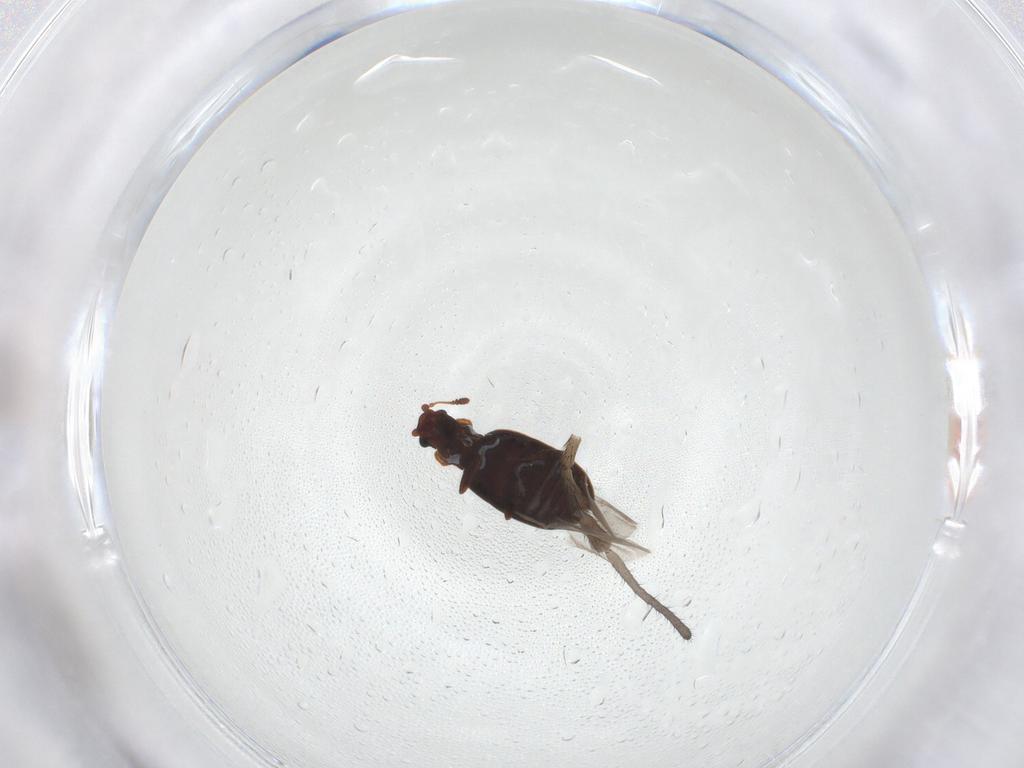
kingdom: Animalia
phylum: Arthropoda
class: Insecta
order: Coleoptera
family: Latridiidae
